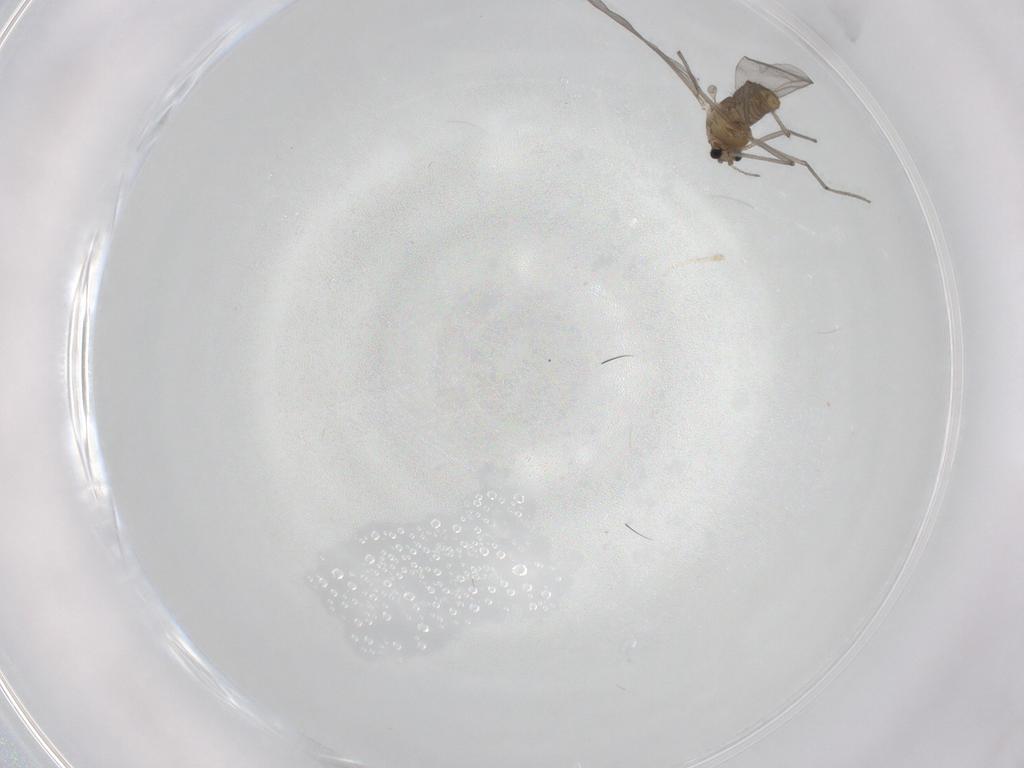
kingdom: Animalia
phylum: Arthropoda
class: Insecta
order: Diptera
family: Chironomidae
